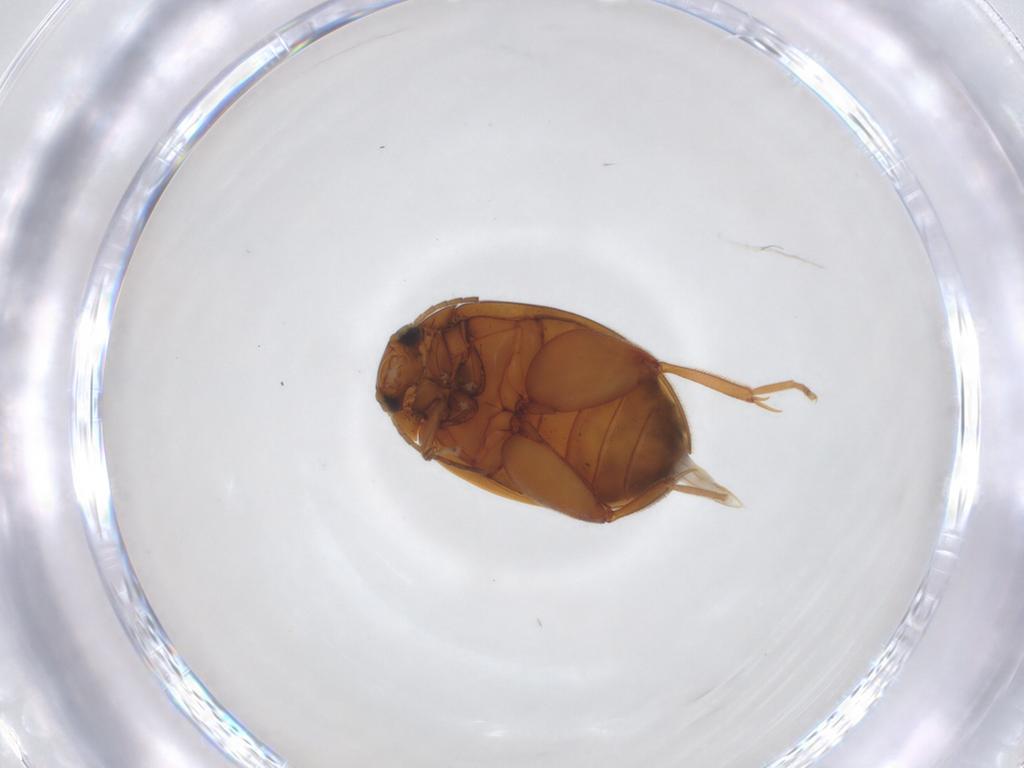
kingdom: Animalia
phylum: Arthropoda
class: Insecta
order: Coleoptera
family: Scirtidae
